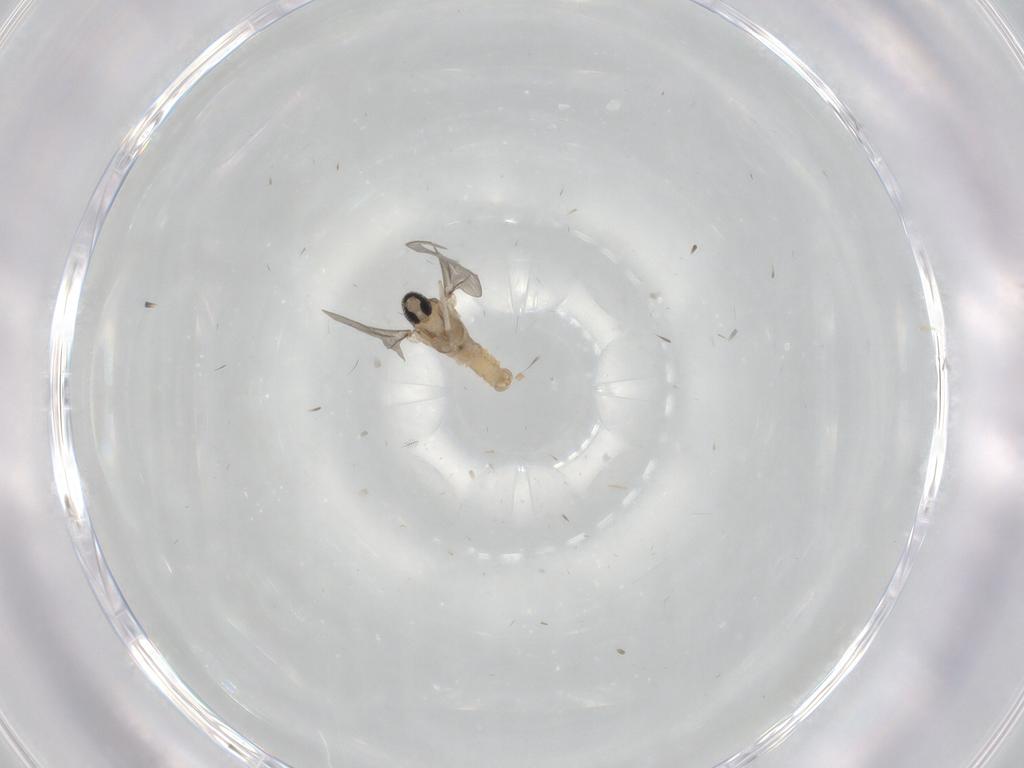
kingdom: Animalia
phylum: Arthropoda
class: Insecta
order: Diptera
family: Cecidomyiidae
